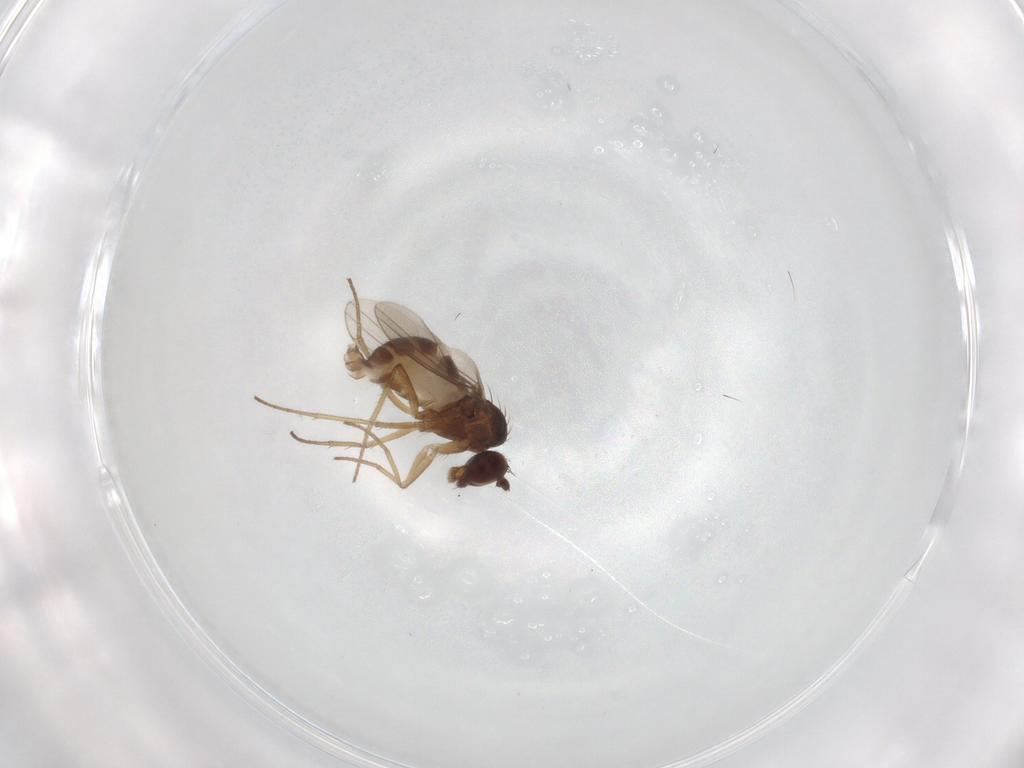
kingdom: Animalia
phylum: Arthropoda
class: Insecta
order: Diptera
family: Dolichopodidae
